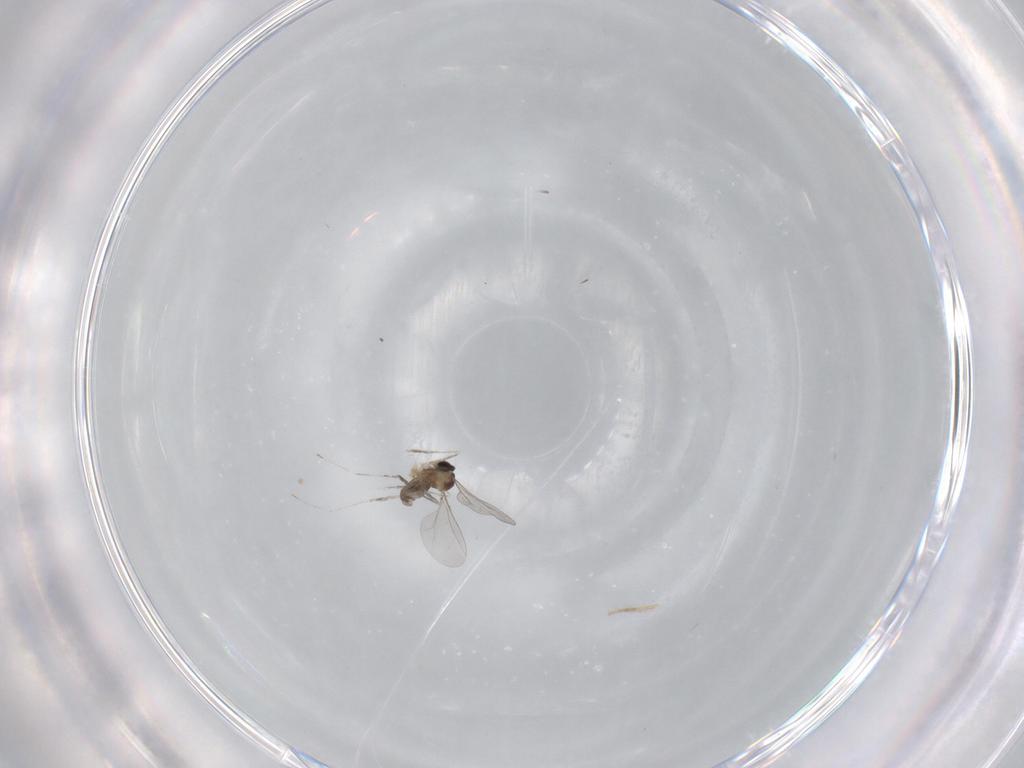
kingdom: Animalia
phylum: Arthropoda
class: Insecta
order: Diptera
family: Cecidomyiidae
